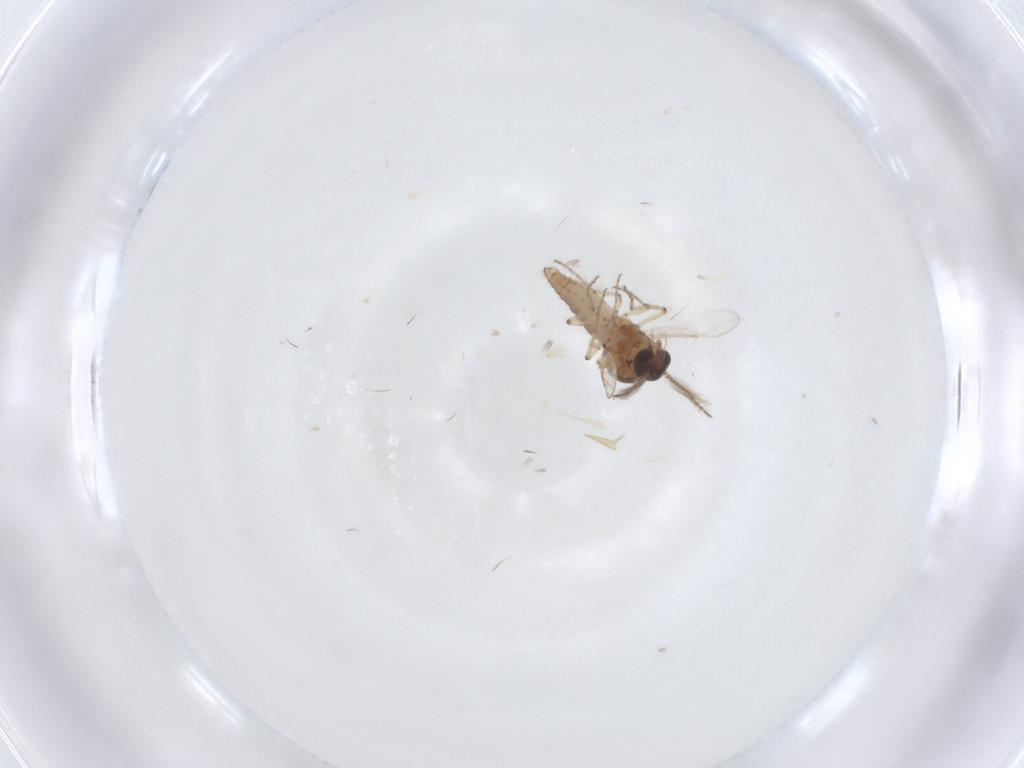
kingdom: Animalia
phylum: Arthropoda
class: Insecta
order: Diptera
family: Ceratopogonidae
